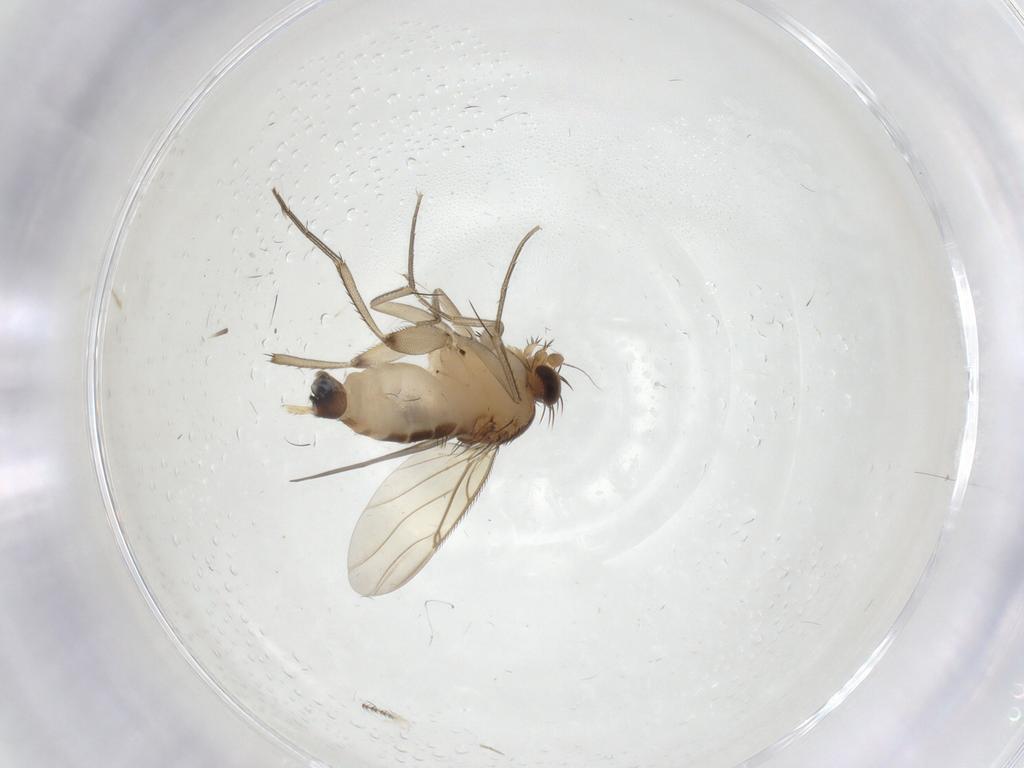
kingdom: Animalia
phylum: Arthropoda
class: Insecta
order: Diptera
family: Phoridae
